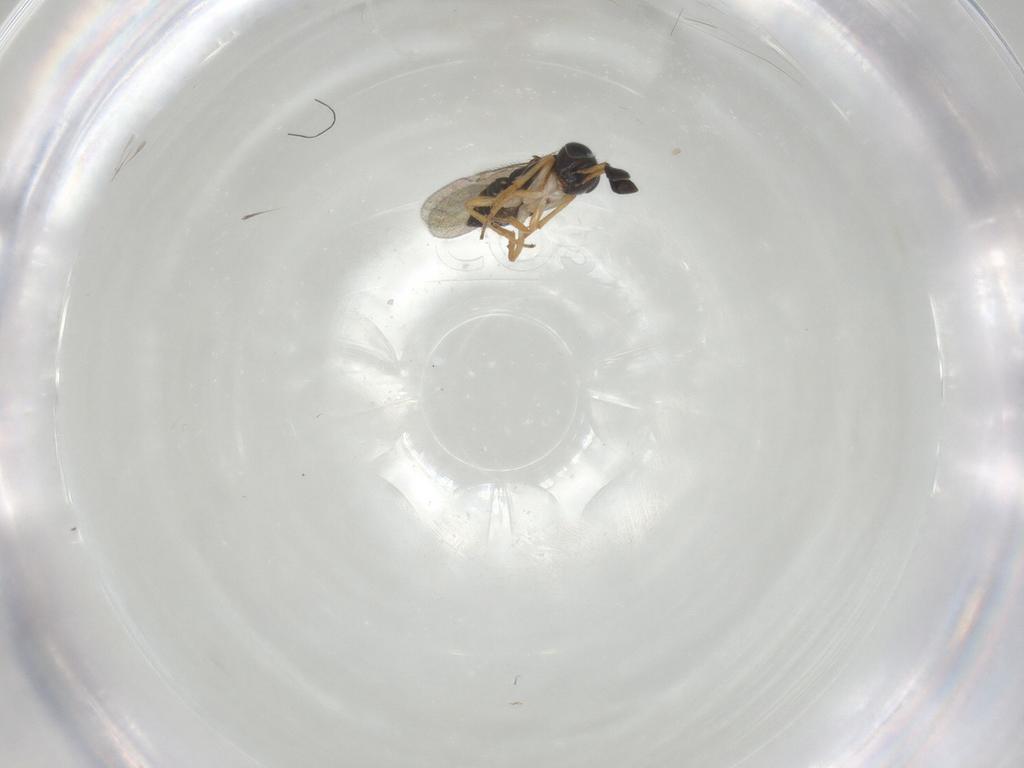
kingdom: Animalia
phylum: Arthropoda
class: Insecta
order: Hymenoptera
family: Encyrtidae
